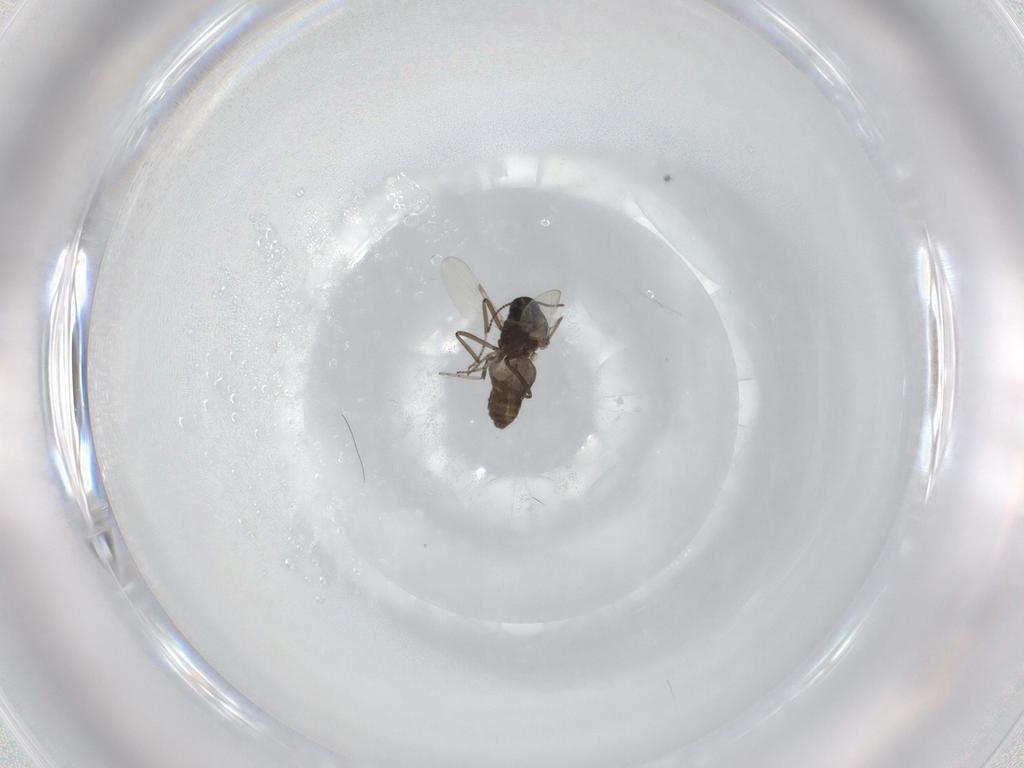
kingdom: Animalia
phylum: Arthropoda
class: Insecta
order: Diptera
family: Ceratopogonidae
